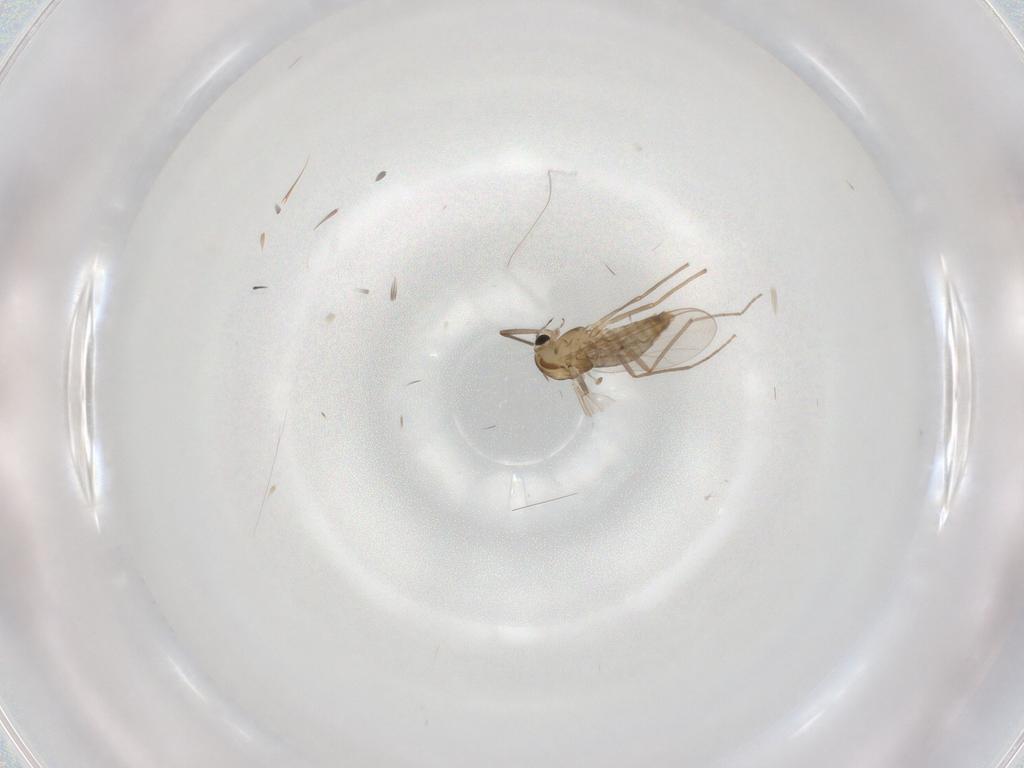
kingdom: Animalia
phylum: Arthropoda
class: Insecta
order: Diptera
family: Chironomidae
